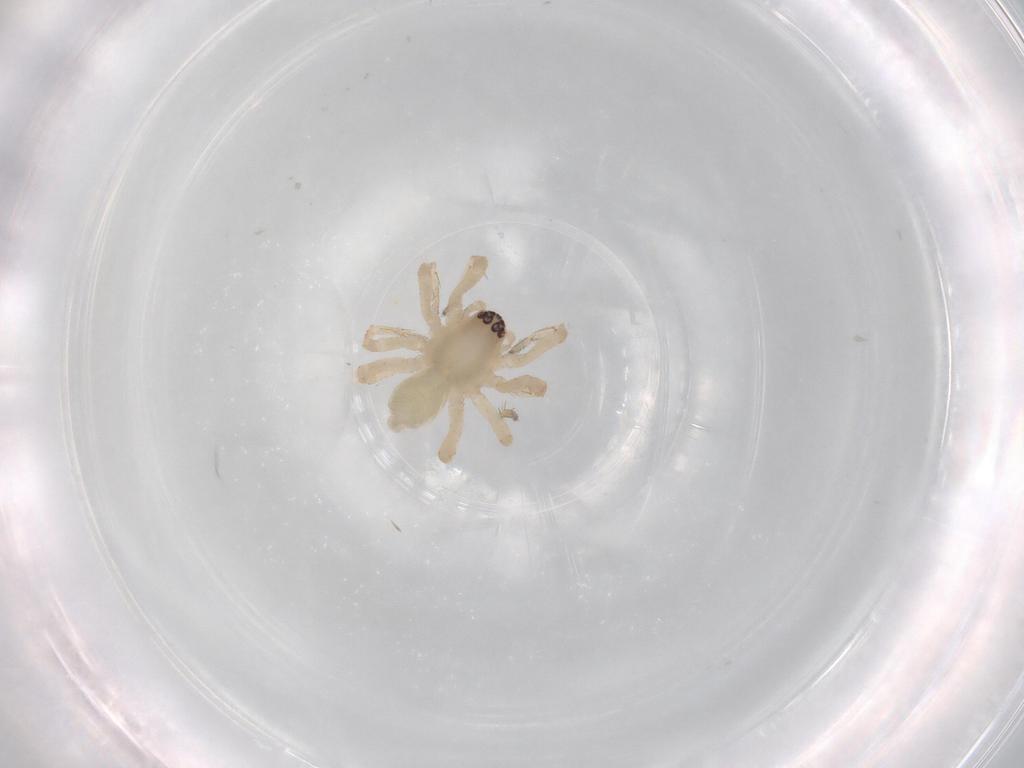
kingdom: Animalia
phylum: Arthropoda
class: Arachnida
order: Araneae
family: Anyphaenidae
